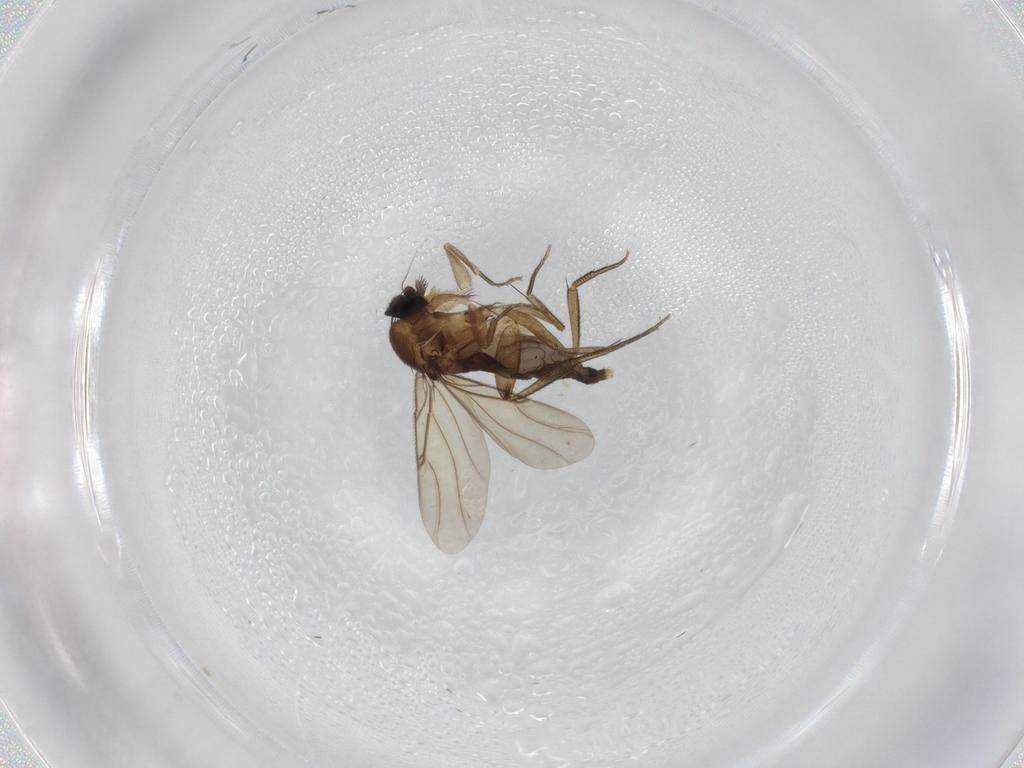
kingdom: Animalia
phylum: Arthropoda
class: Insecta
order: Diptera
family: Phoridae
